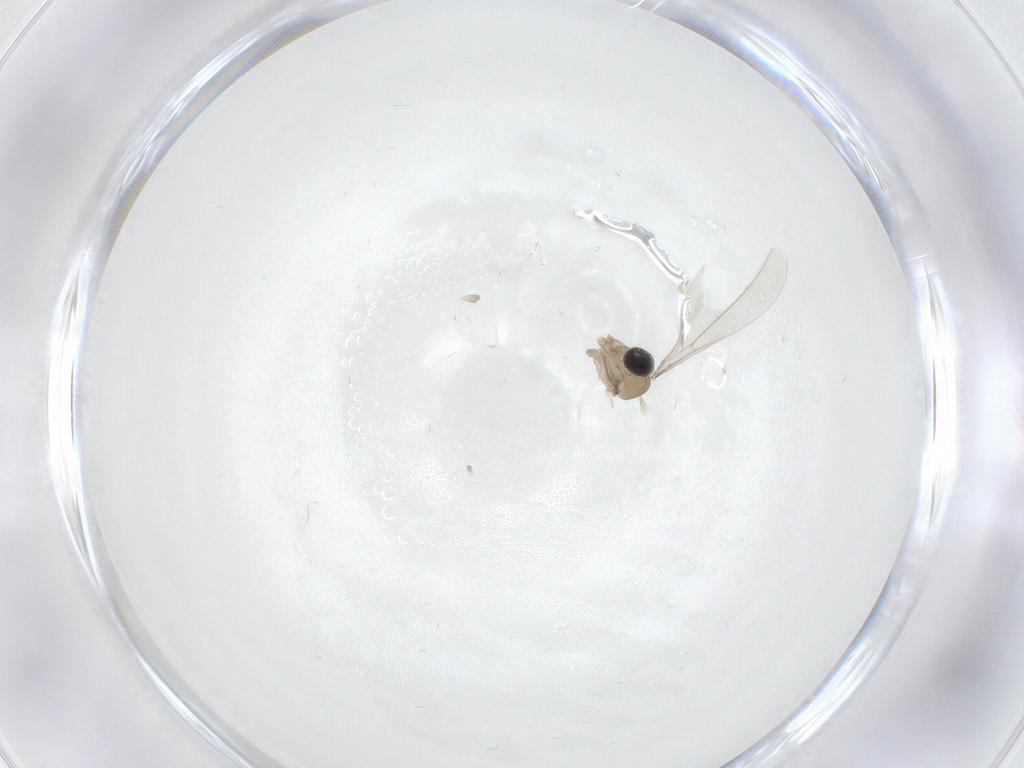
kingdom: Animalia
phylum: Arthropoda
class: Insecta
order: Diptera
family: Cecidomyiidae
